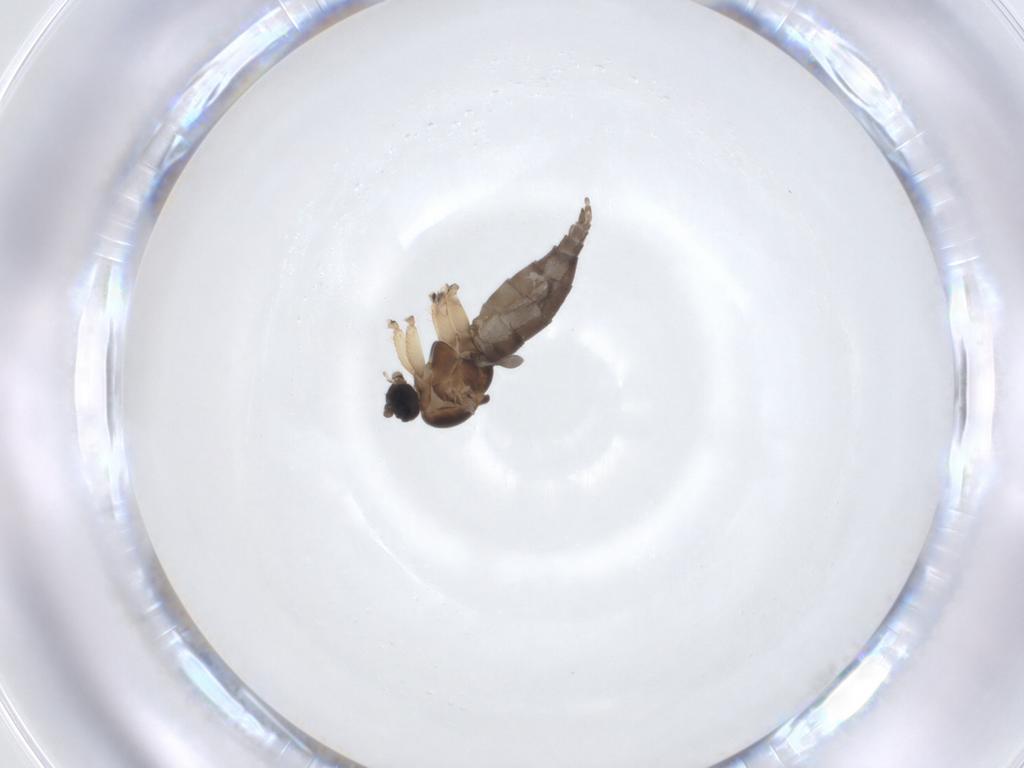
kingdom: Animalia
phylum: Arthropoda
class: Insecta
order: Diptera
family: Sciaridae
